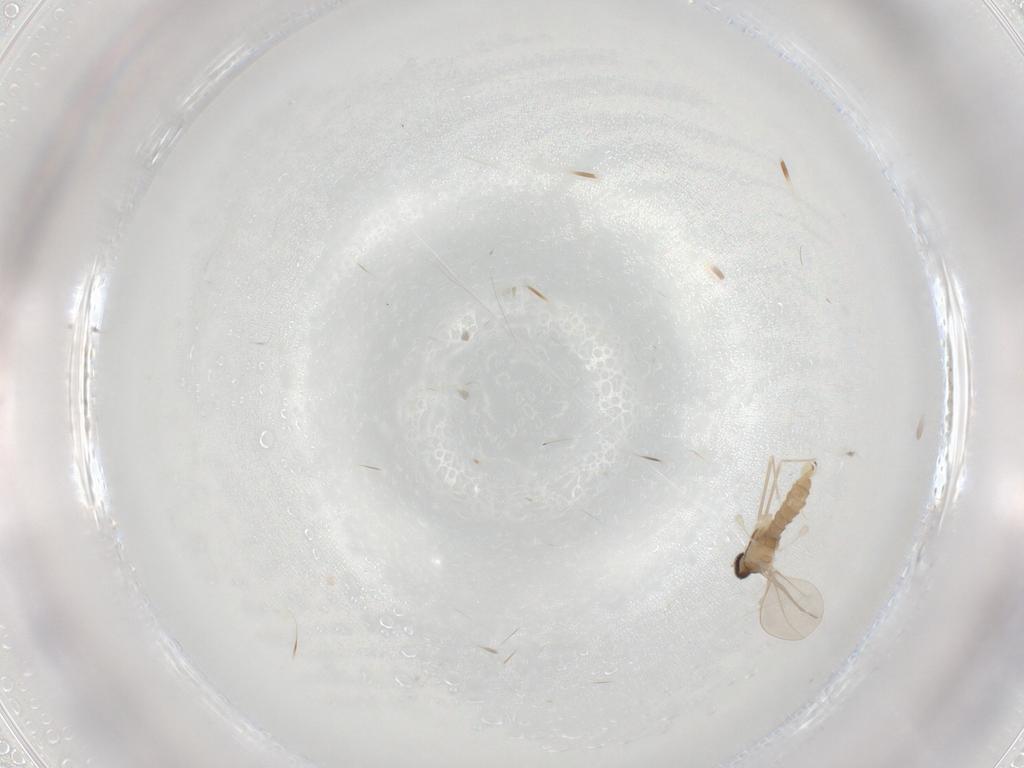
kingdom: Animalia
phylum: Arthropoda
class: Insecta
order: Diptera
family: Cecidomyiidae
